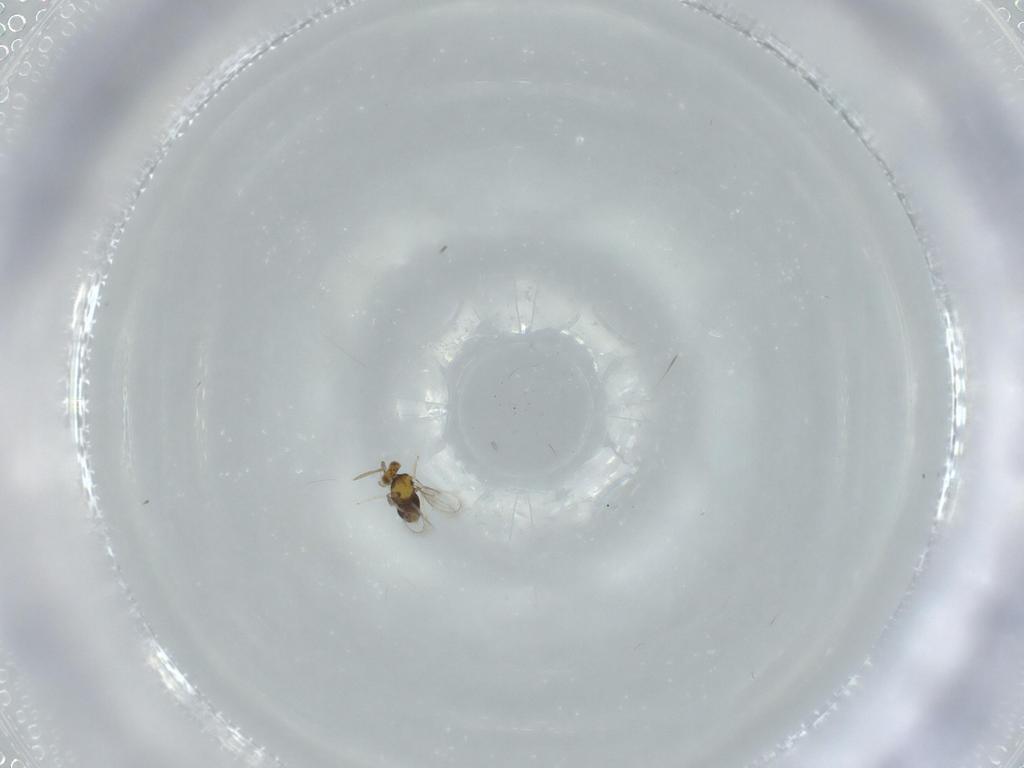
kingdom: Animalia
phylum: Arthropoda
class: Insecta
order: Hymenoptera
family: Aphelinidae
